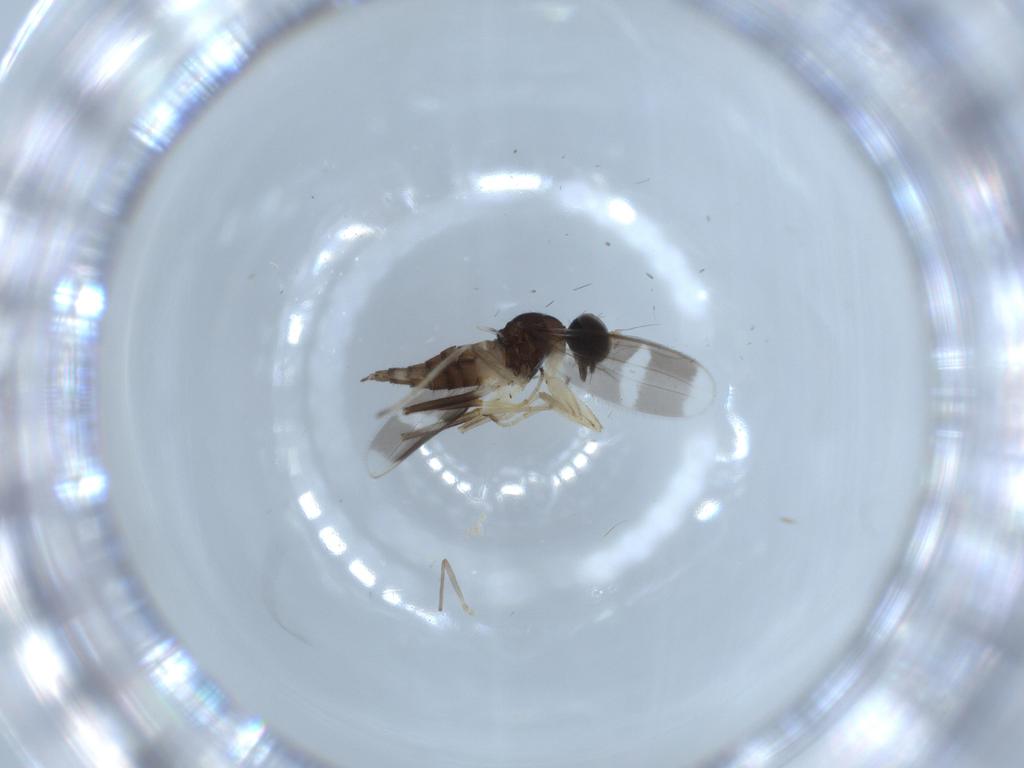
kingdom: Animalia
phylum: Arthropoda
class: Insecta
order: Diptera
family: Hybotidae
